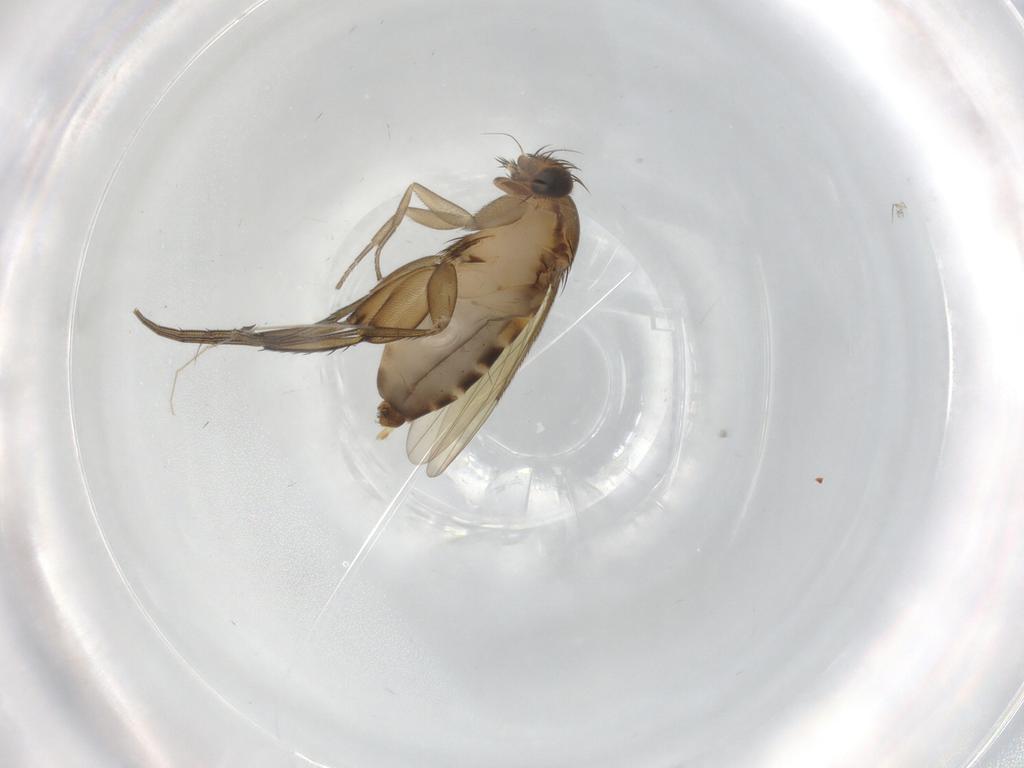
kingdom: Animalia
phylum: Arthropoda
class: Insecta
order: Diptera
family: Phoridae
